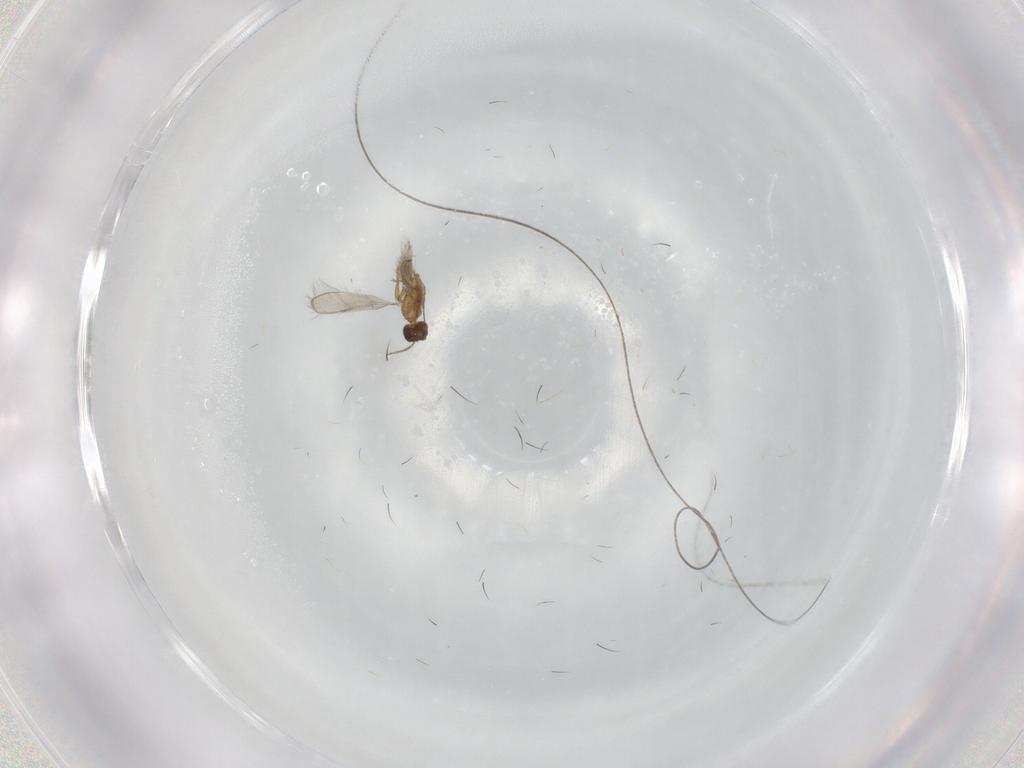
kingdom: Animalia
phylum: Arthropoda
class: Insecta
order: Hymenoptera
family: Mymaridae
